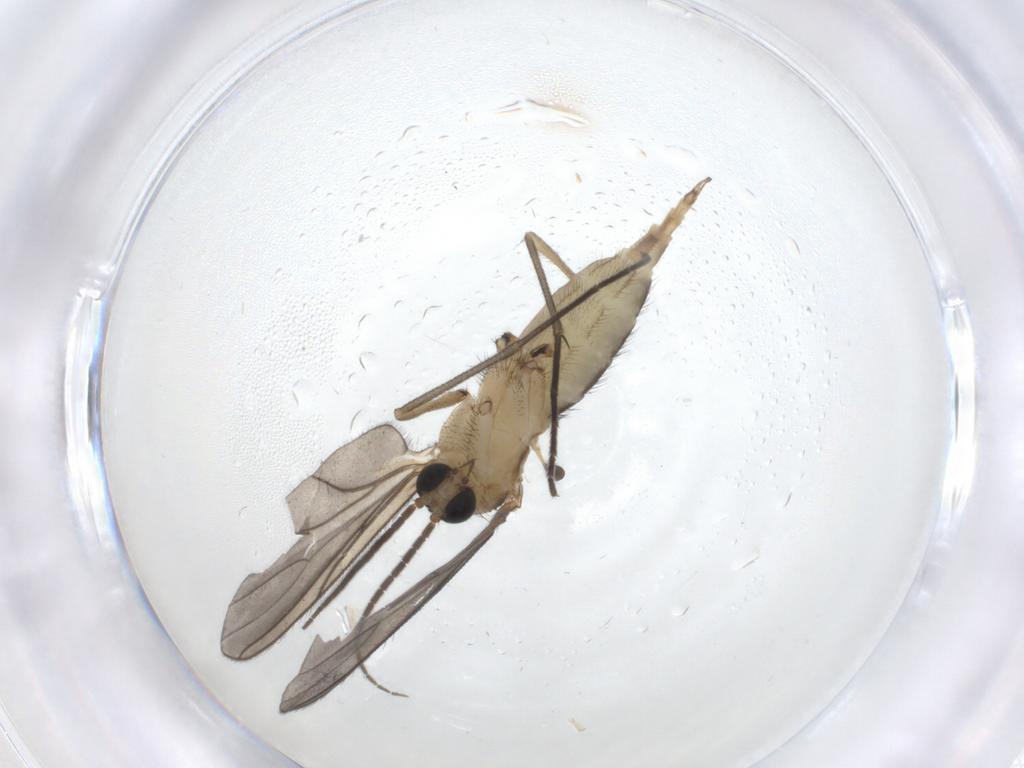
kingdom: Animalia
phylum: Arthropoda
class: Insecta
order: Diptera
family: Sciaridae
